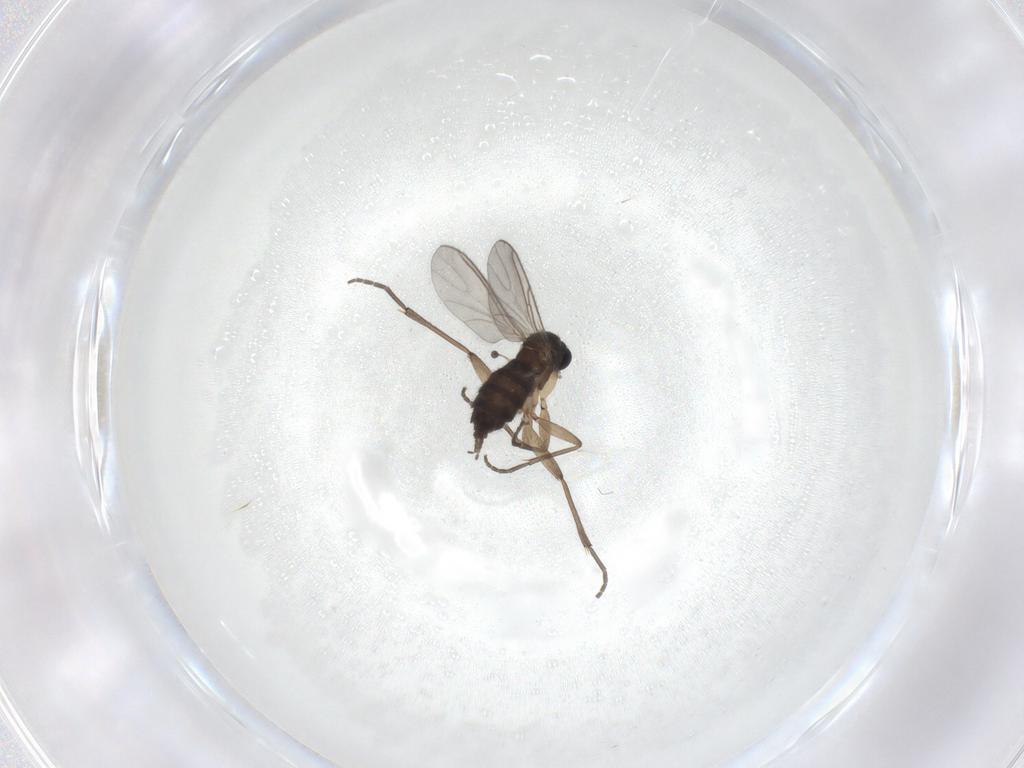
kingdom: Animalia
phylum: Arthropoda
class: Insecta
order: Diptera
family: Sciaridae
